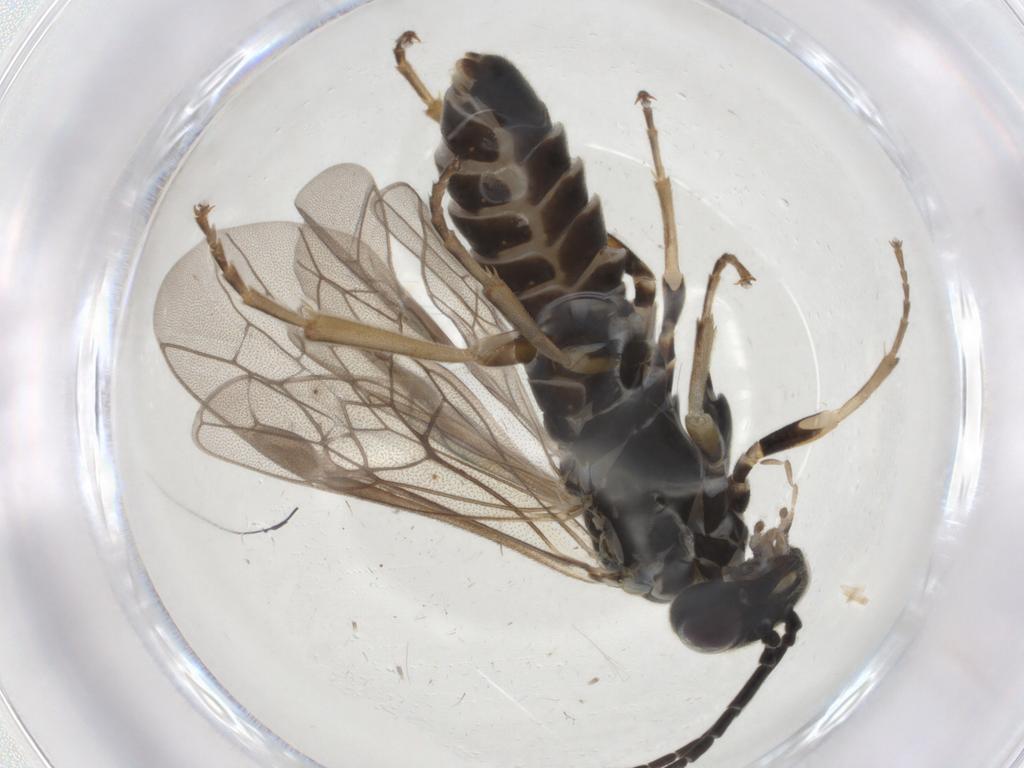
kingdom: Animalia
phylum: Arthropoda
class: Insecta
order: Hymenoptera
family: Tenthredinidae
